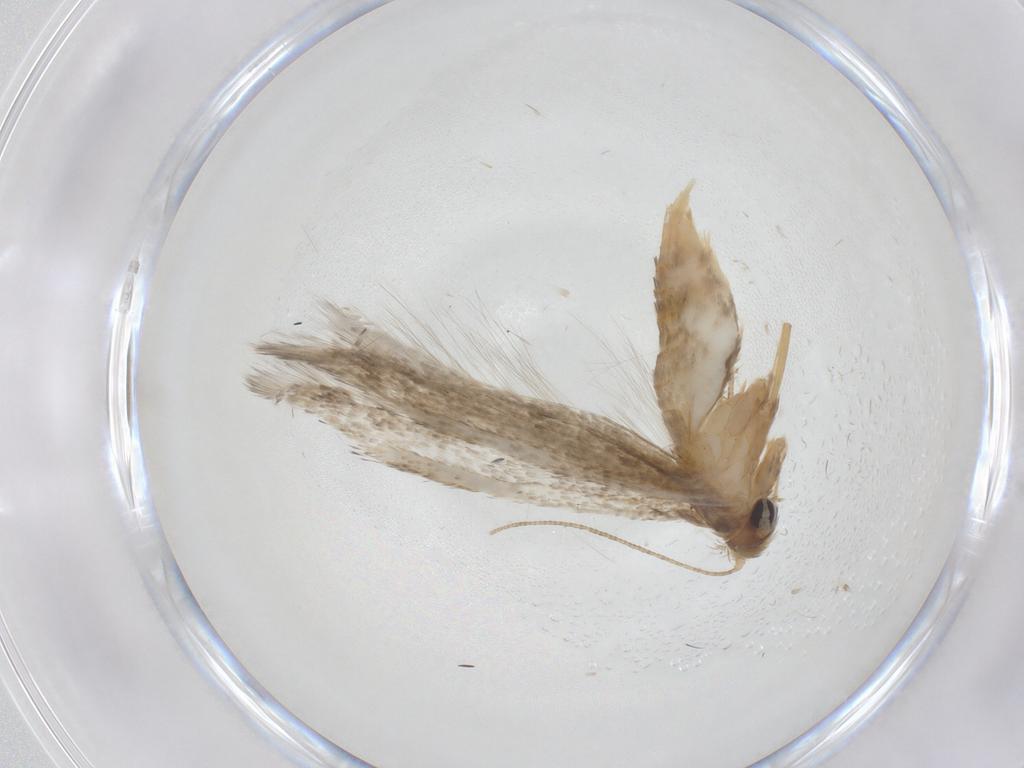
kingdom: Animalia
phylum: Arthropoda
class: Insecta
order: Lepidoptera
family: Blastobasidae
